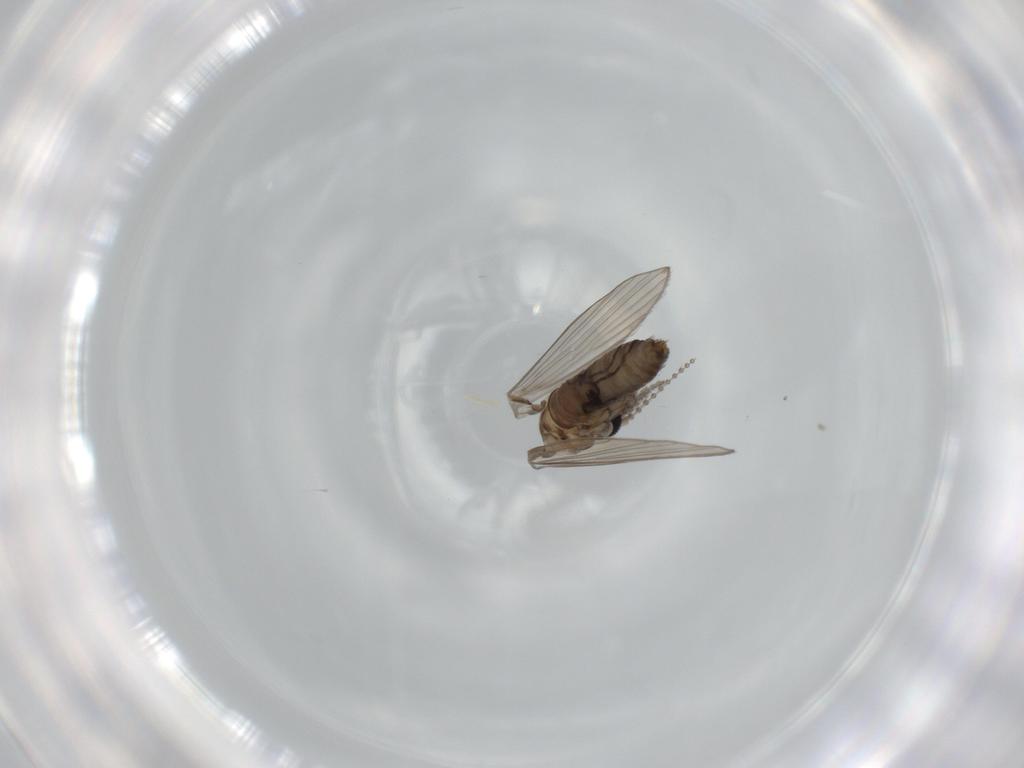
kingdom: Animalia
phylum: Arthropoda
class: Insecta
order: Diptera
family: Psychodidae
